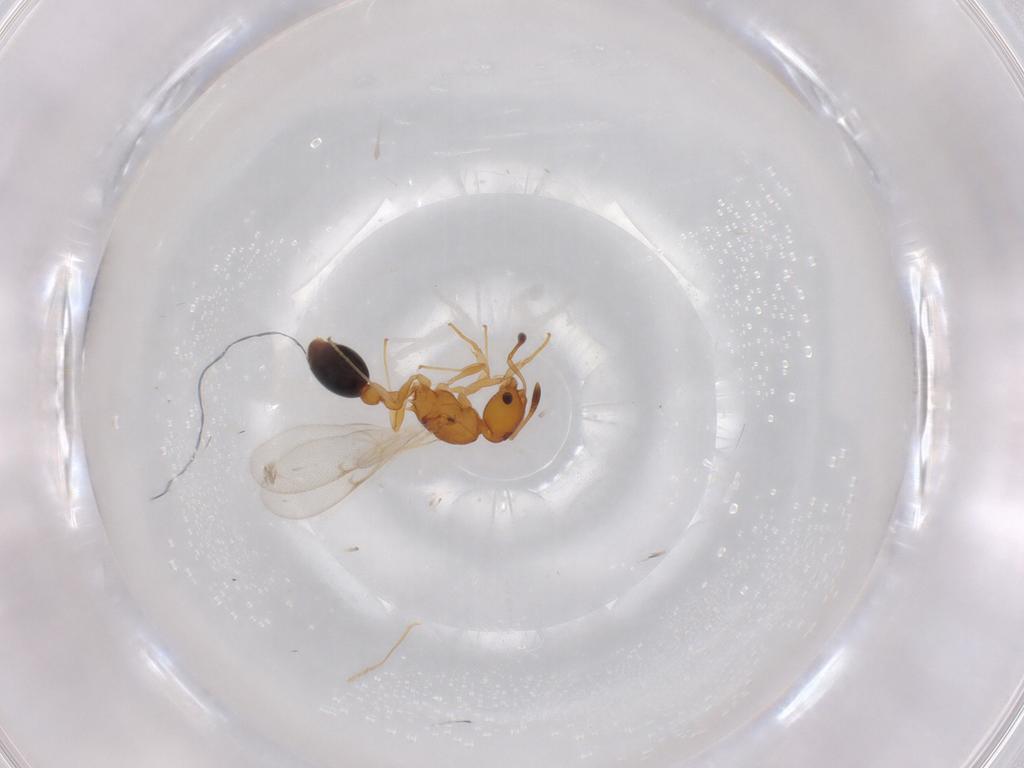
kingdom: Animalia
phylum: Arthropoda
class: Insecta
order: Hymenoptera
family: Formicidae
